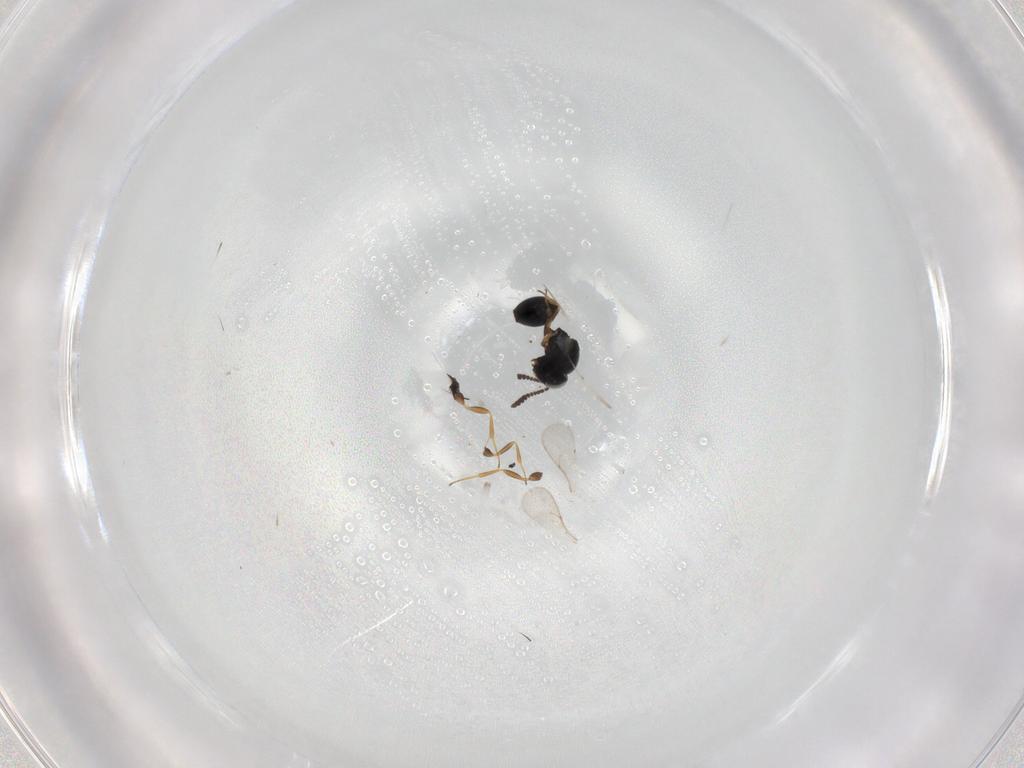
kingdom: Animalia
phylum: Arthropoda
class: Insecta
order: Hymenoptera
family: Scelionidae
